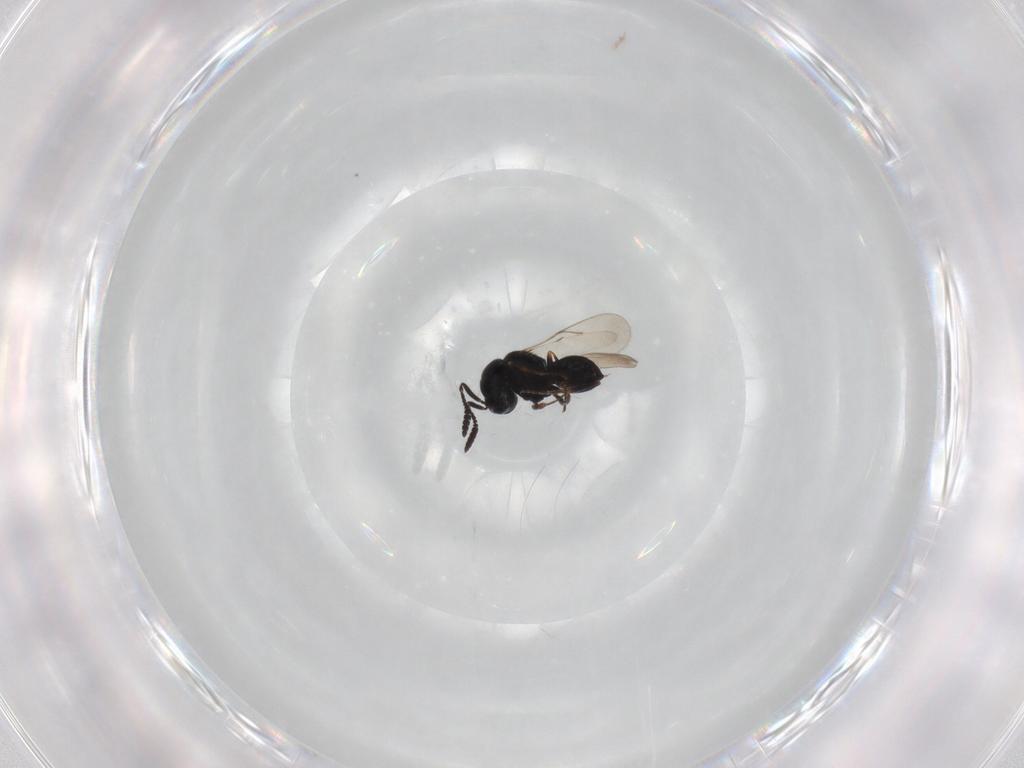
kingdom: Animalia
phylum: Arthropoda
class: Insecta
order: Hymenoptera
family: Scelionidae
